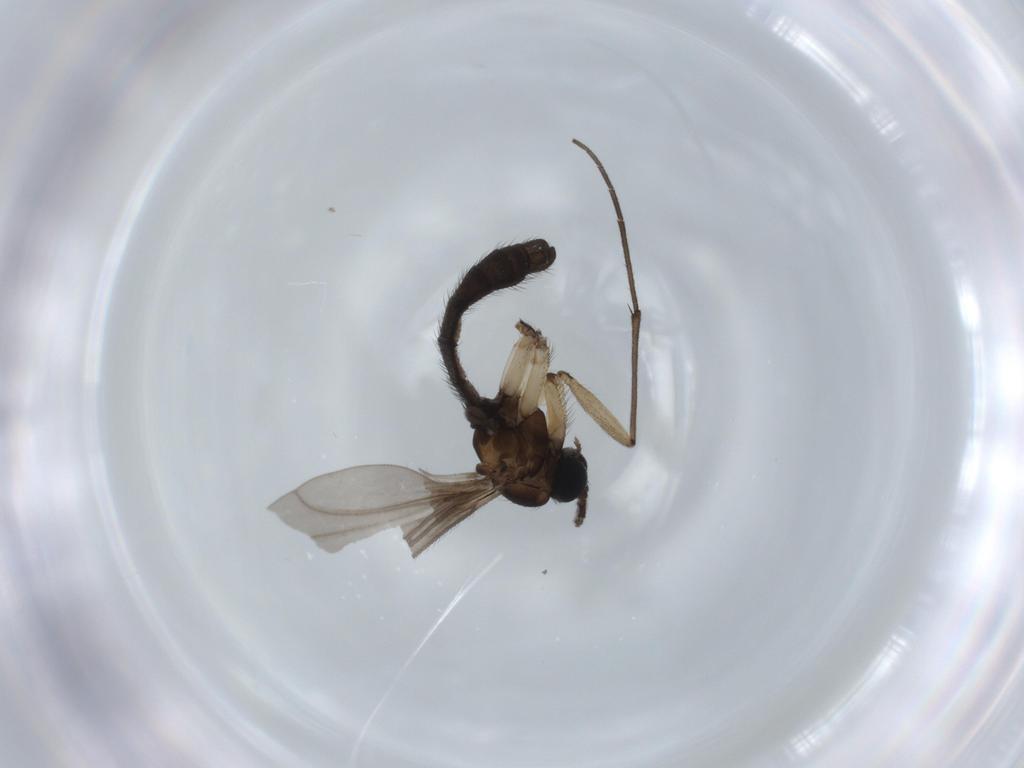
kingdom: Animalia
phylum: Arthropoda
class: Insecta
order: Diptera
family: Sciaridae
